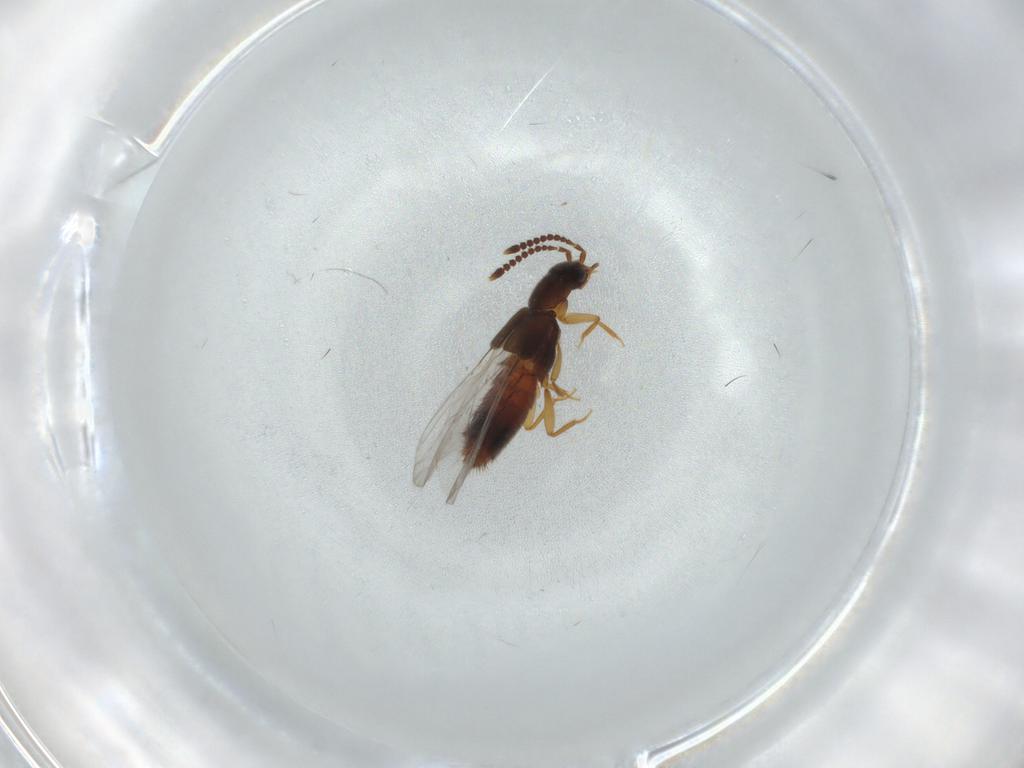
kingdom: Animalia
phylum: Arthropoda
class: Insecta
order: Coleoptera
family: Staphylinidae
